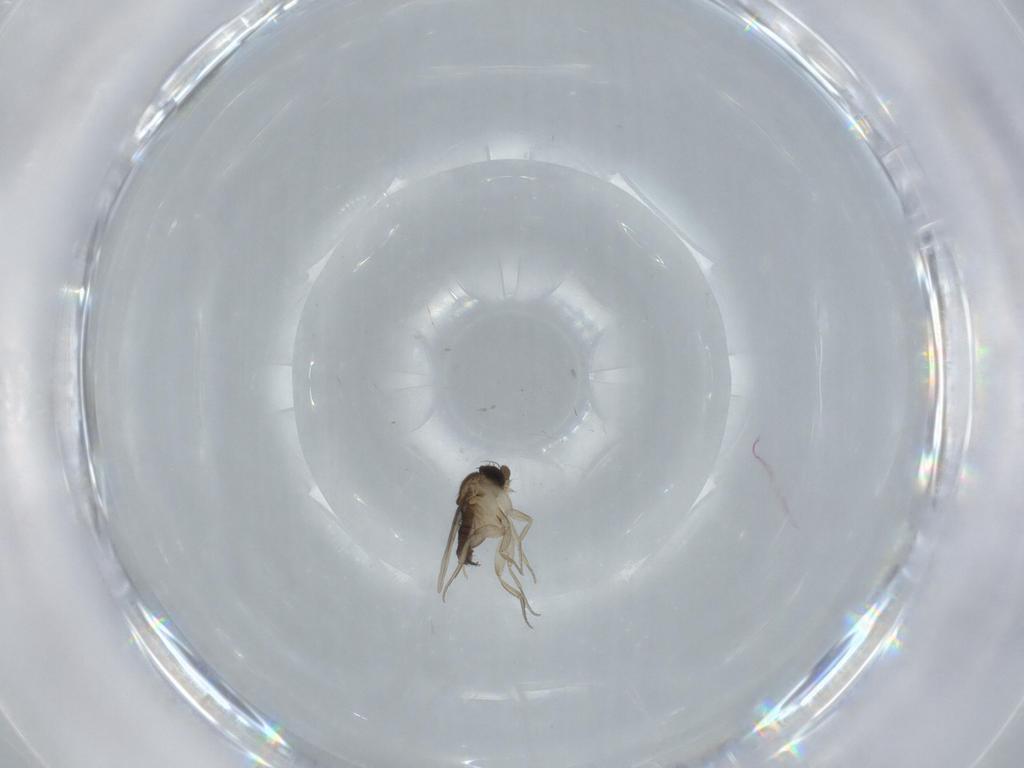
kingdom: Animalia
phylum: Arthropoda
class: Insecta
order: Diptera
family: Phoridae
